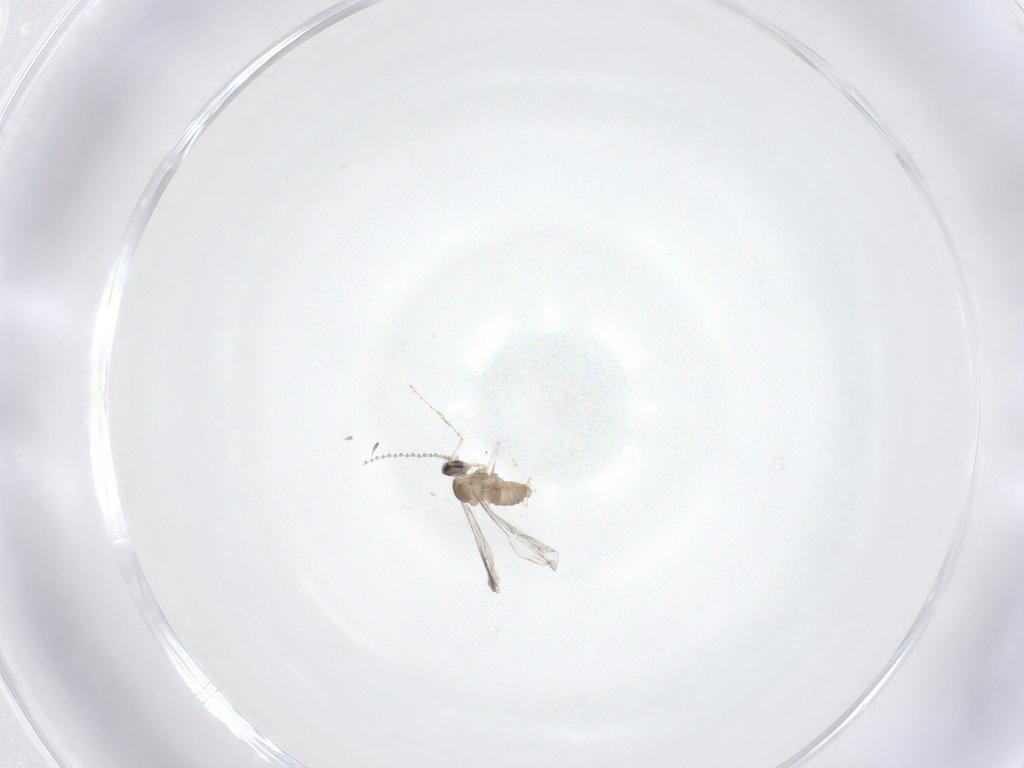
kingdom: Animalia
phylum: Arthropoda
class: Insecta
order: Diptera
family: Cecidomyiidae
